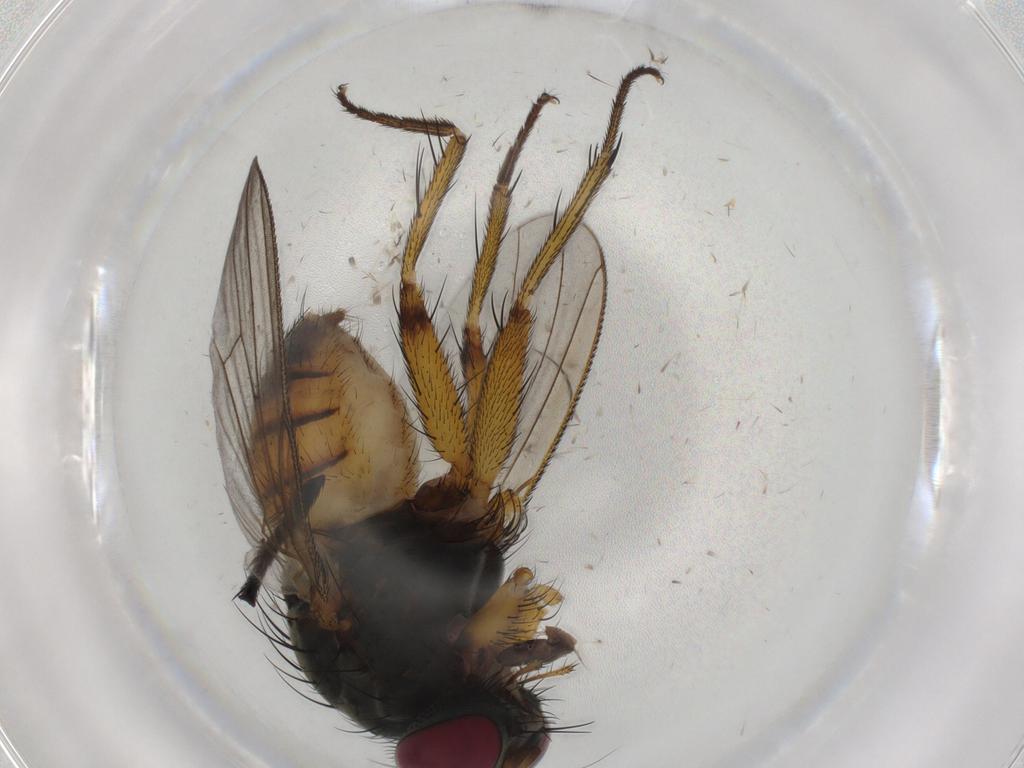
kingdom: Animalia
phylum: Arthropoda
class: Insecta
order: Diptera
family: Muscidae
